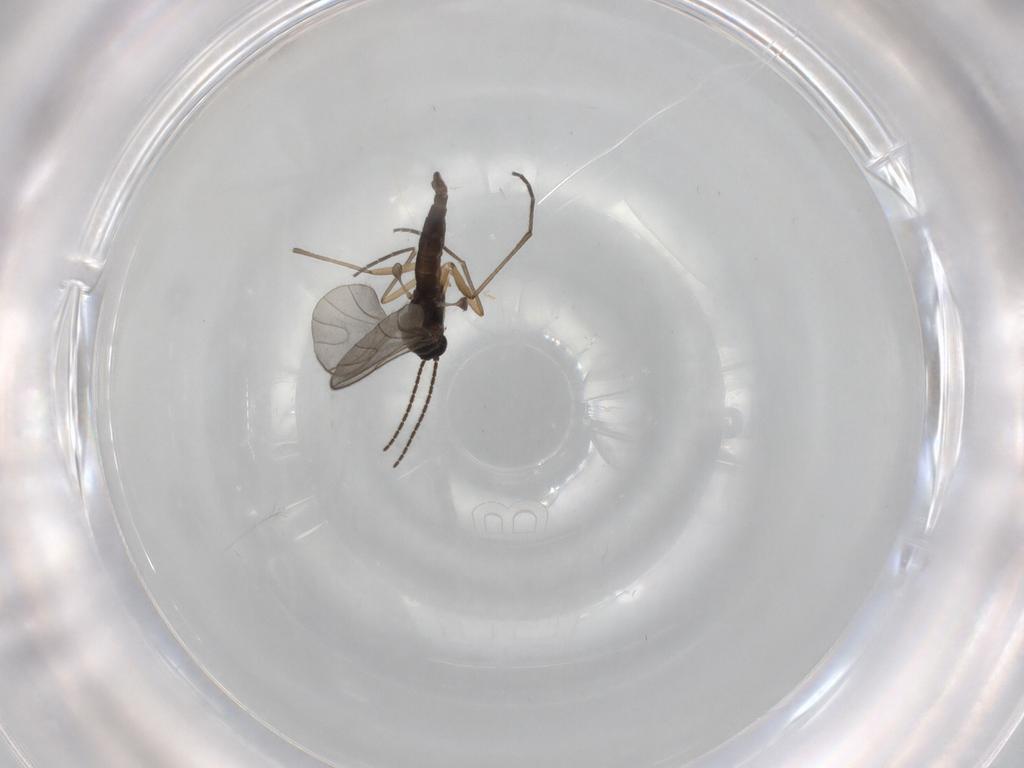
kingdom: Animalia
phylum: Arthropoda
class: Insecta
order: Diptera
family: Sciaridae
